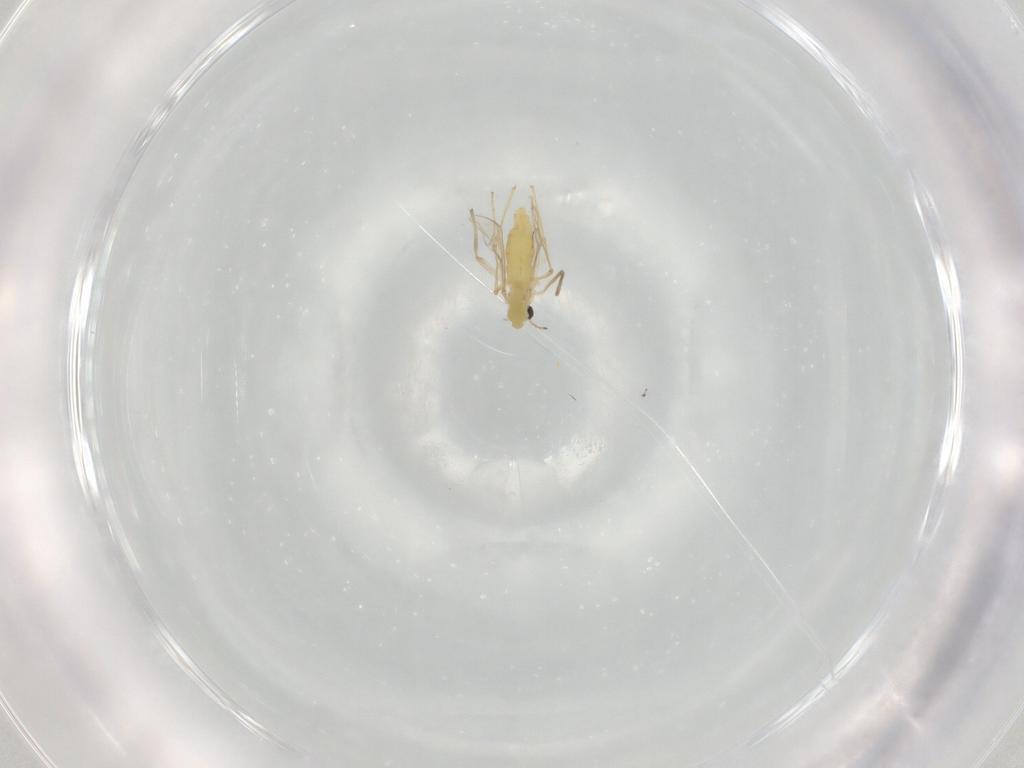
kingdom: Animalia
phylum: Arthropoda
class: Insecta
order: Diptera
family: Chironomidae
